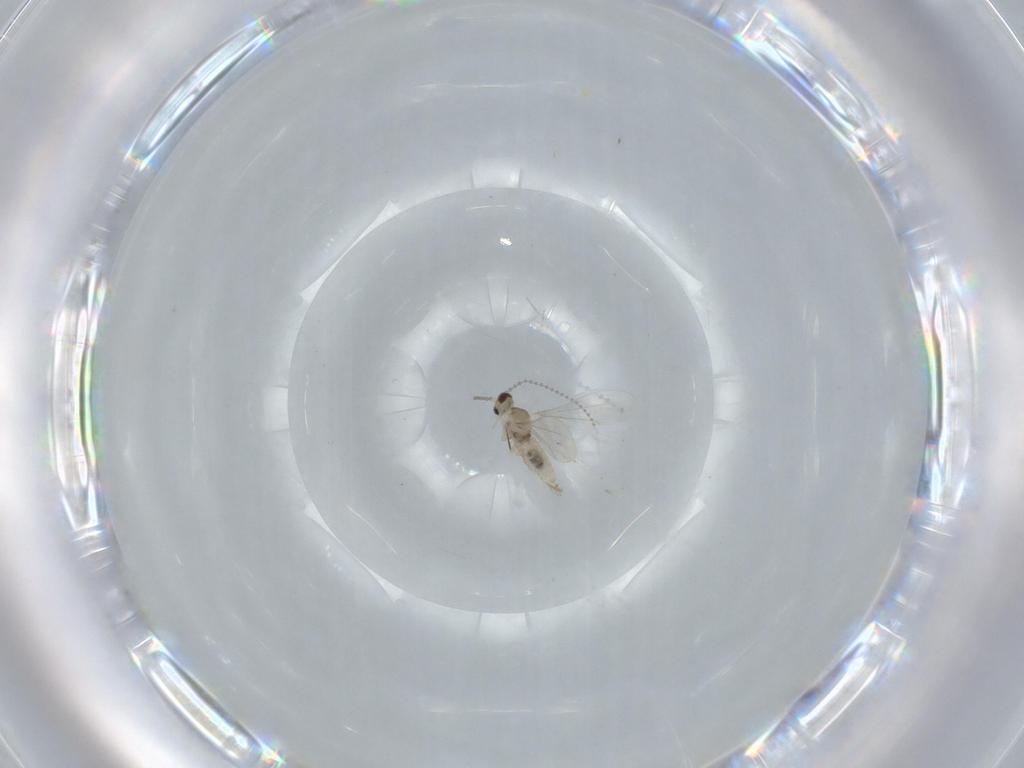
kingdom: Animalia
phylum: Arthropoda
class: Insecta
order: Diptera
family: Cecidomyiidae
